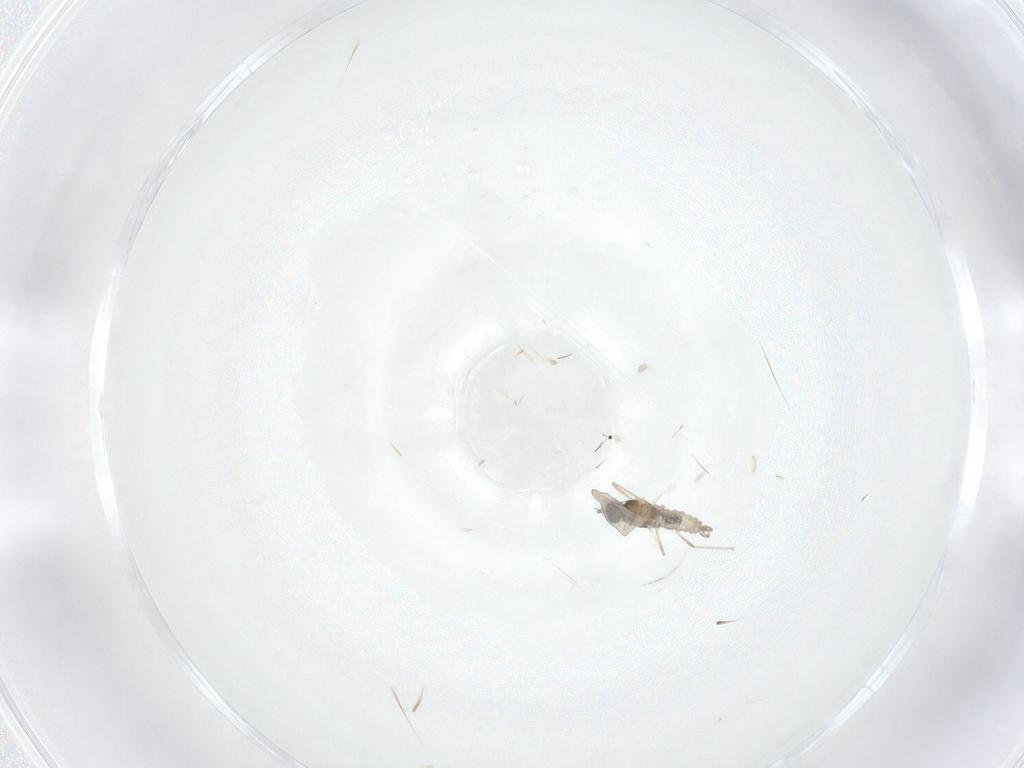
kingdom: Animalia
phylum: Arthropoda
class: Insecta
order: Diptera
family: Cecidomyiidae
